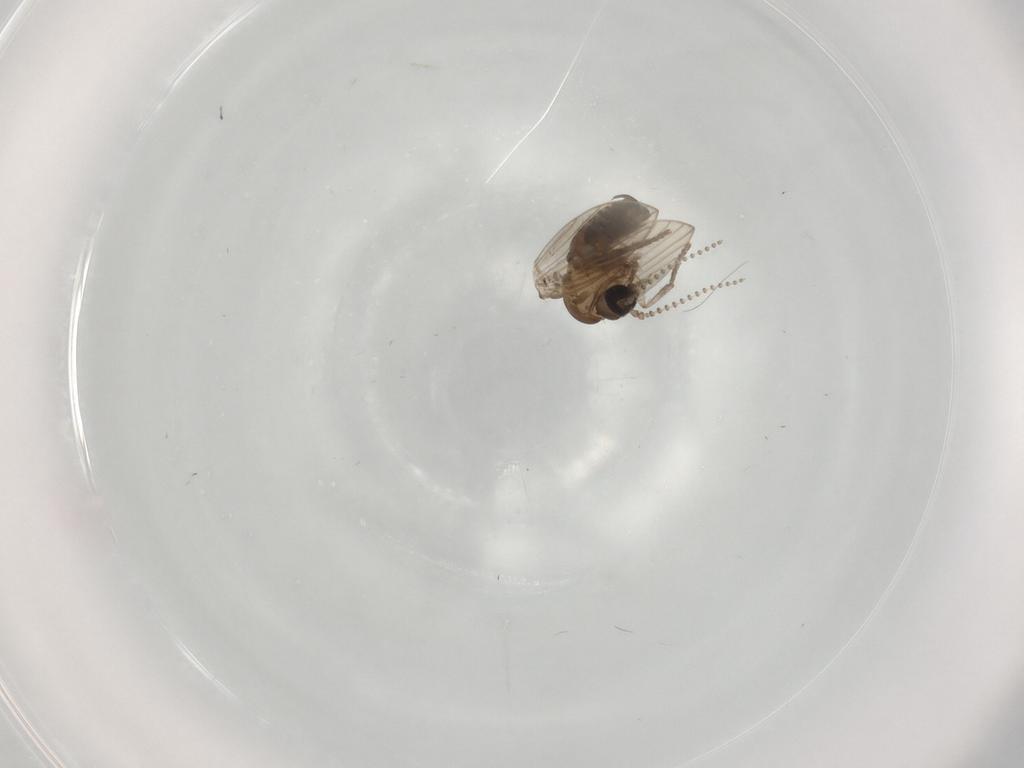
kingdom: Animalia
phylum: Arthropoda
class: Insecta
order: Diptera
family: Psychodidae
